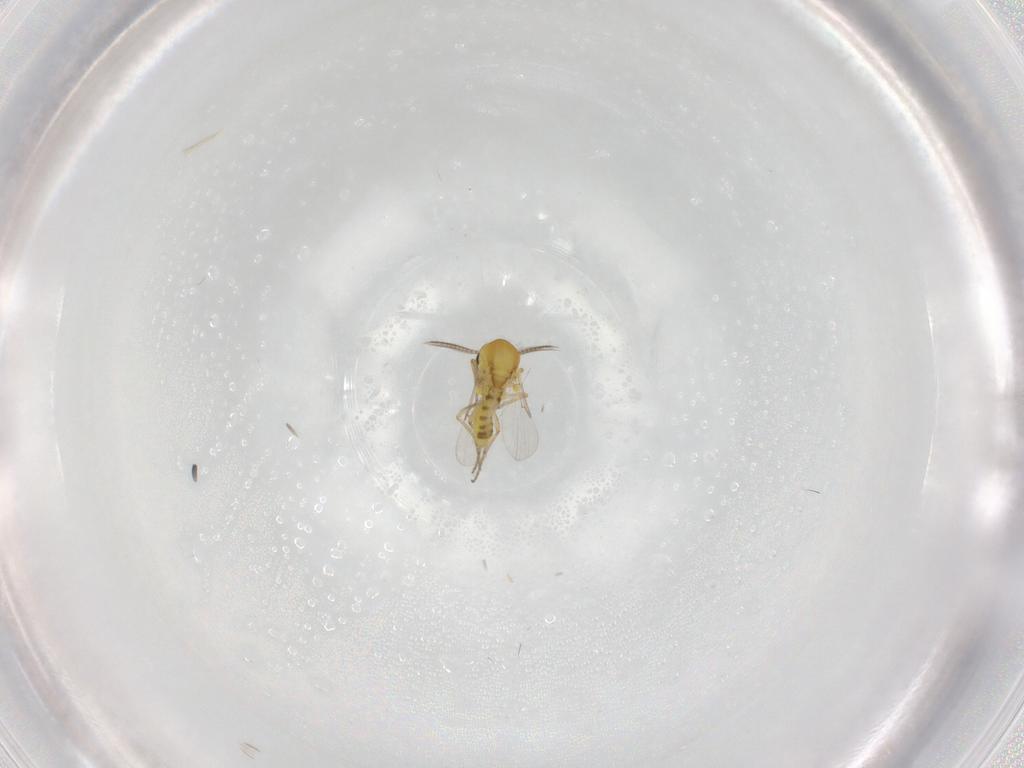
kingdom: Animalia
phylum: Arthropoda
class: Insecta
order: Diptera
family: Ceratopogonidae
